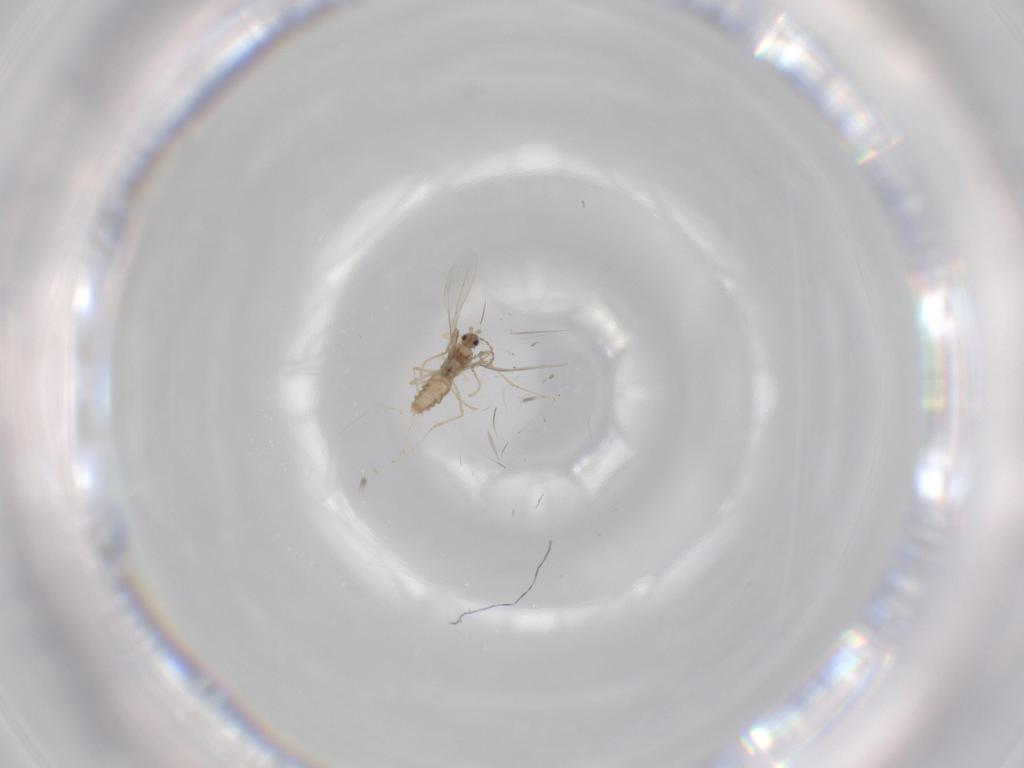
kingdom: Animalia
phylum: Arthropoda
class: Insecta
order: Diptera
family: Cecidomyiidae
